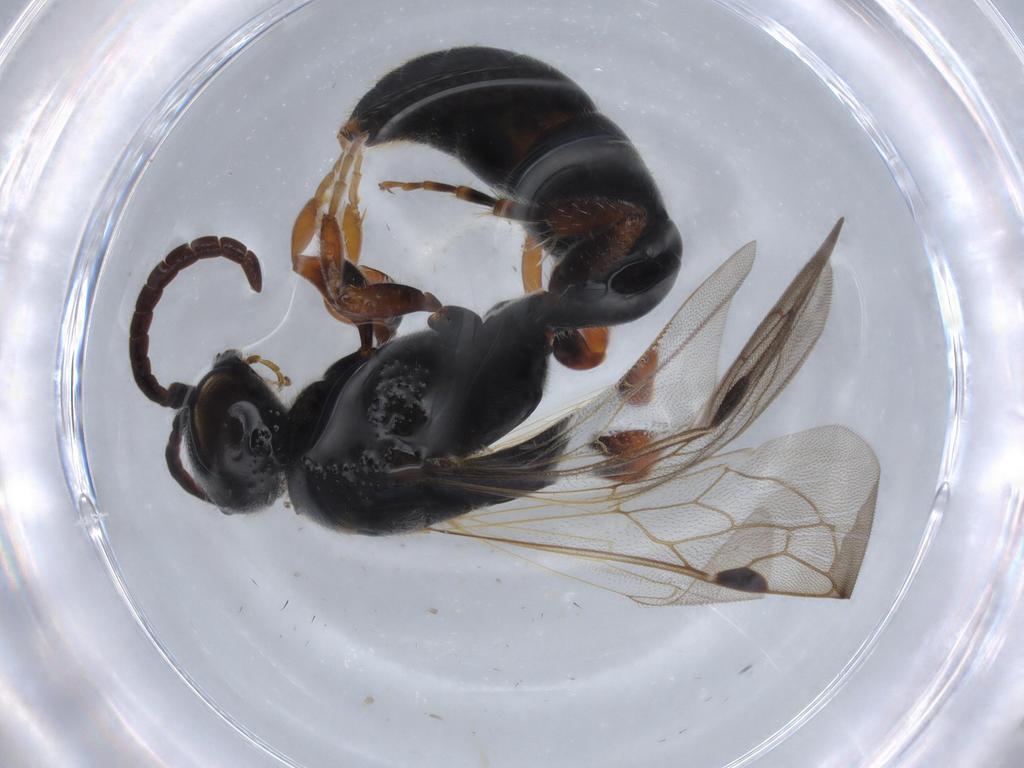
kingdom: Animalia
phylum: Arthropoda
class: Insecta
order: Hymenoptera
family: Tiphiidae
